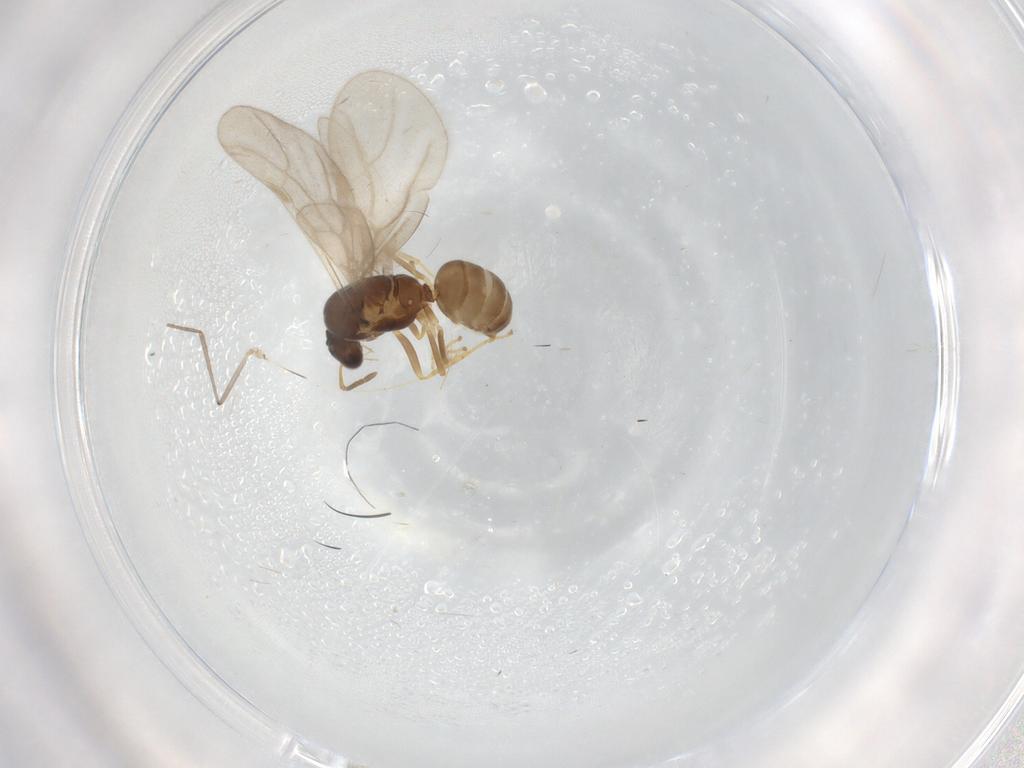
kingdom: Animalia
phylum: Arthropoda
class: Insecta
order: Hymenoptera
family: Formicidae
